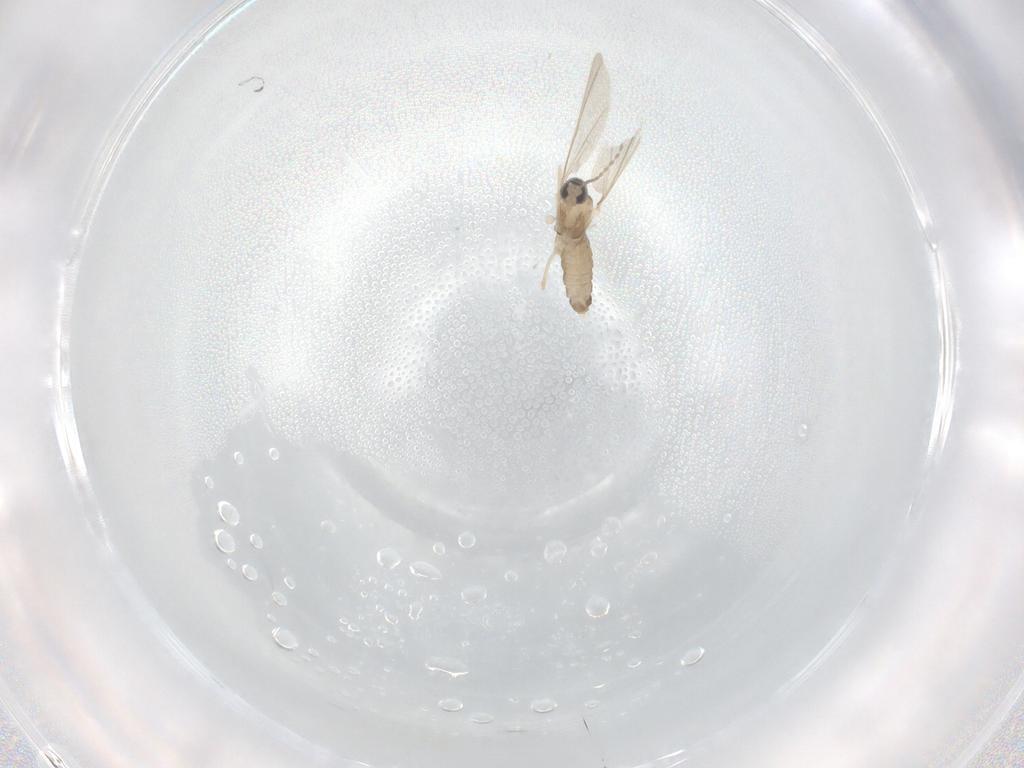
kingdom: Animalia
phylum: Arthropoda
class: Insecta
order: Diptera
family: Cecidomyiidae
